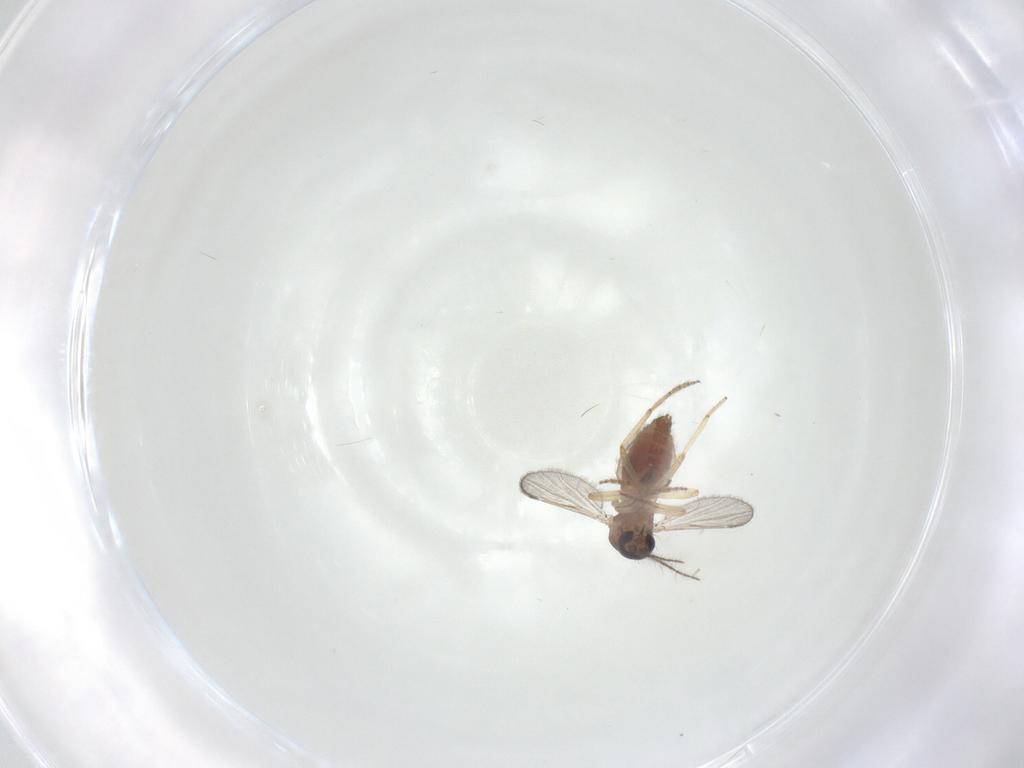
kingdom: Animalia
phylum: Arthropoda
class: Insecta
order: Diptera
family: Ceratopogonidae
